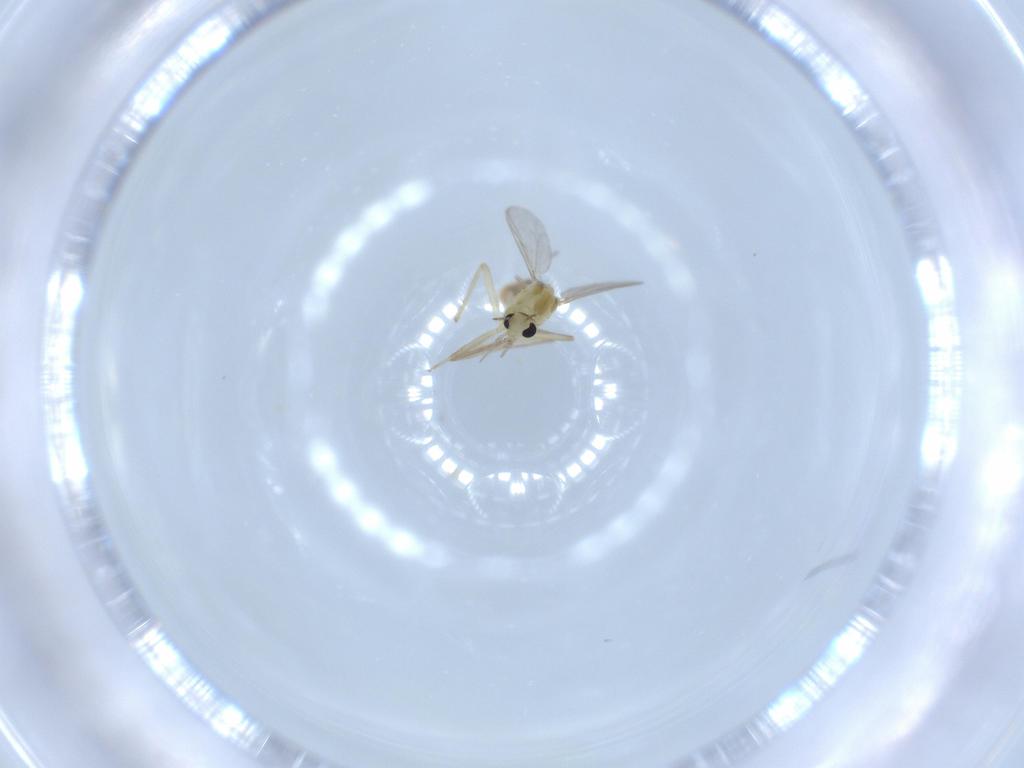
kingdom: Animalia
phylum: Arthropoda
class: Insecta
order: Diptera
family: Chironomidae
